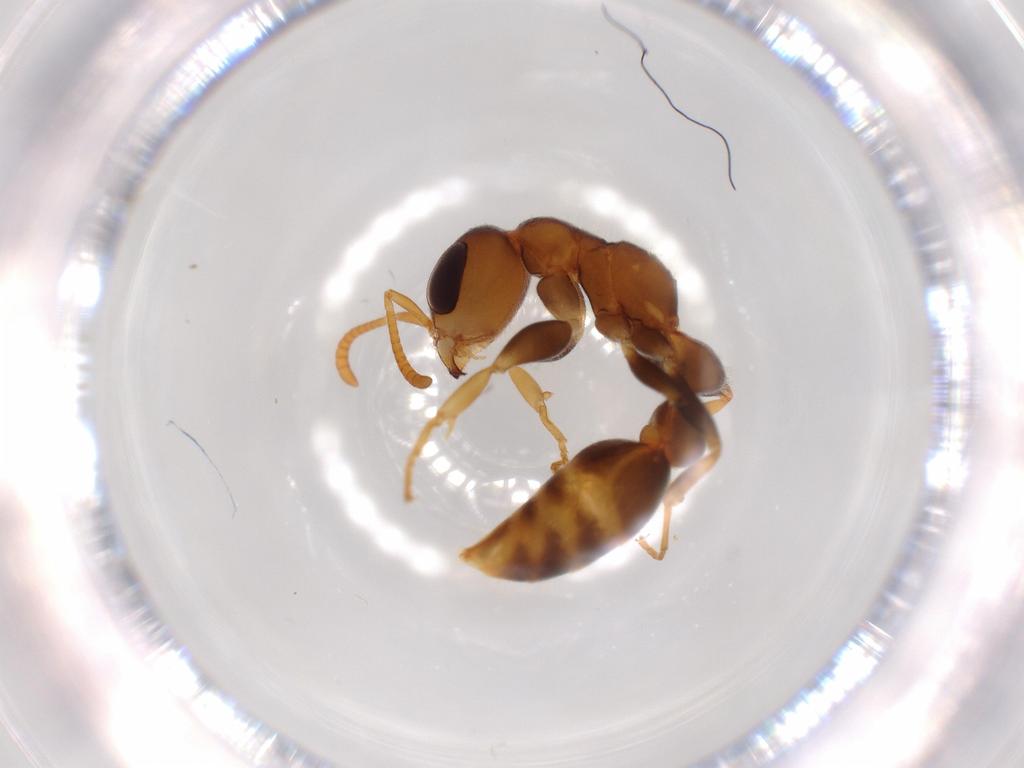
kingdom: Animalia
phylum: Arthropoda
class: Insecta
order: Hymenoptera
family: Formicidae
